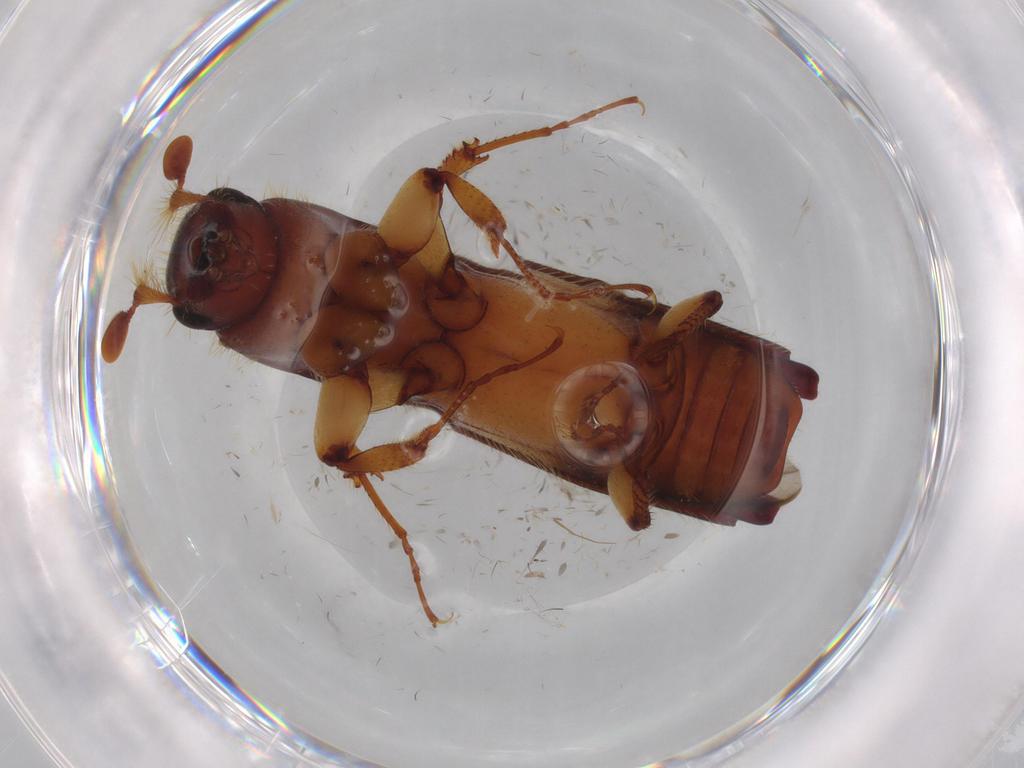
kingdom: Animalia
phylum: Arthropoda
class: Insecta
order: Coleoptera
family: Curculionidae
